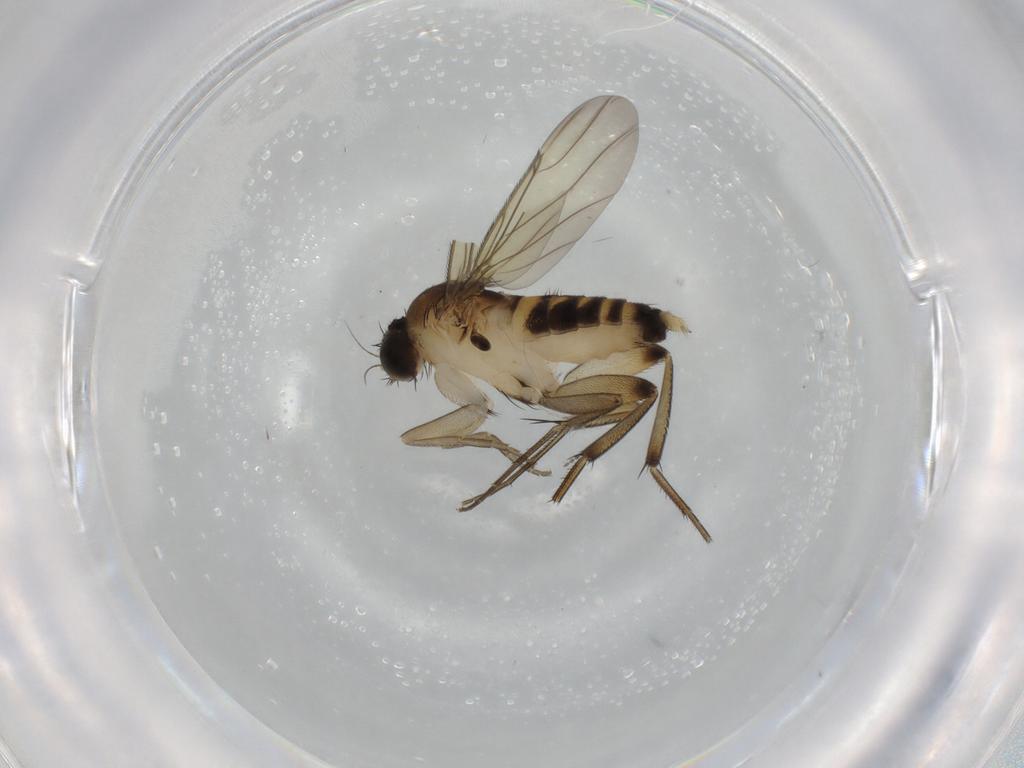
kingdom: Animalia
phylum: Arthropoda
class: Insecta
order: Diptera
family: Phoridae
